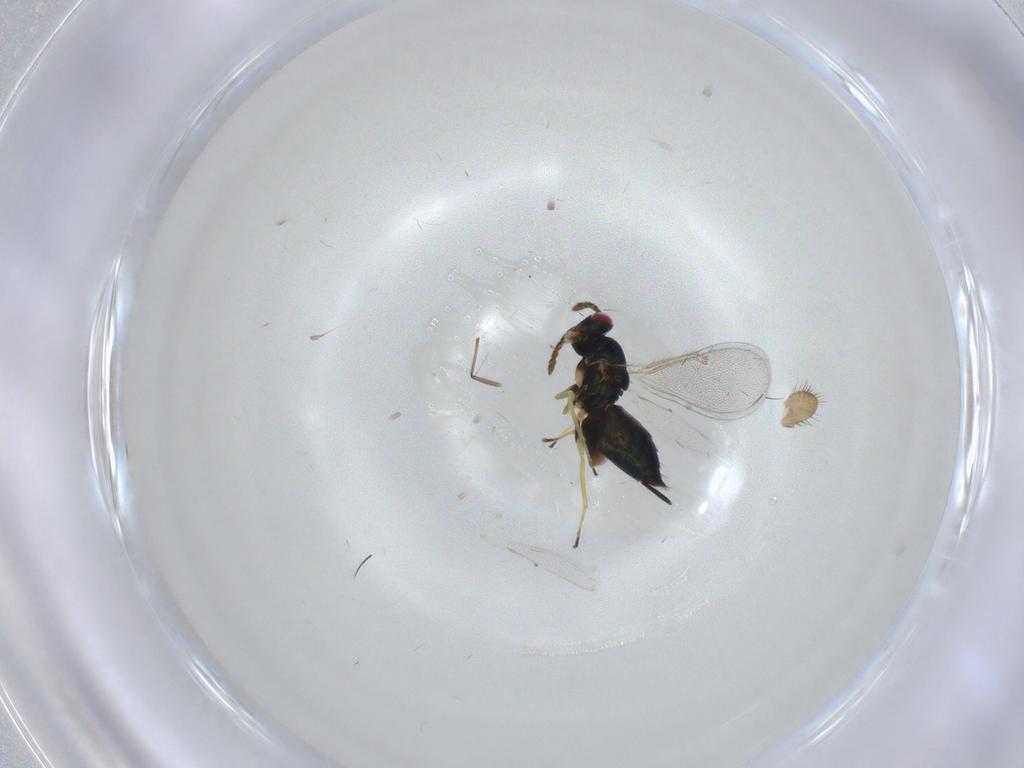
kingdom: Animalia
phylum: Arthropoda
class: Insecta
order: Hymenoptera
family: Eulophidae
